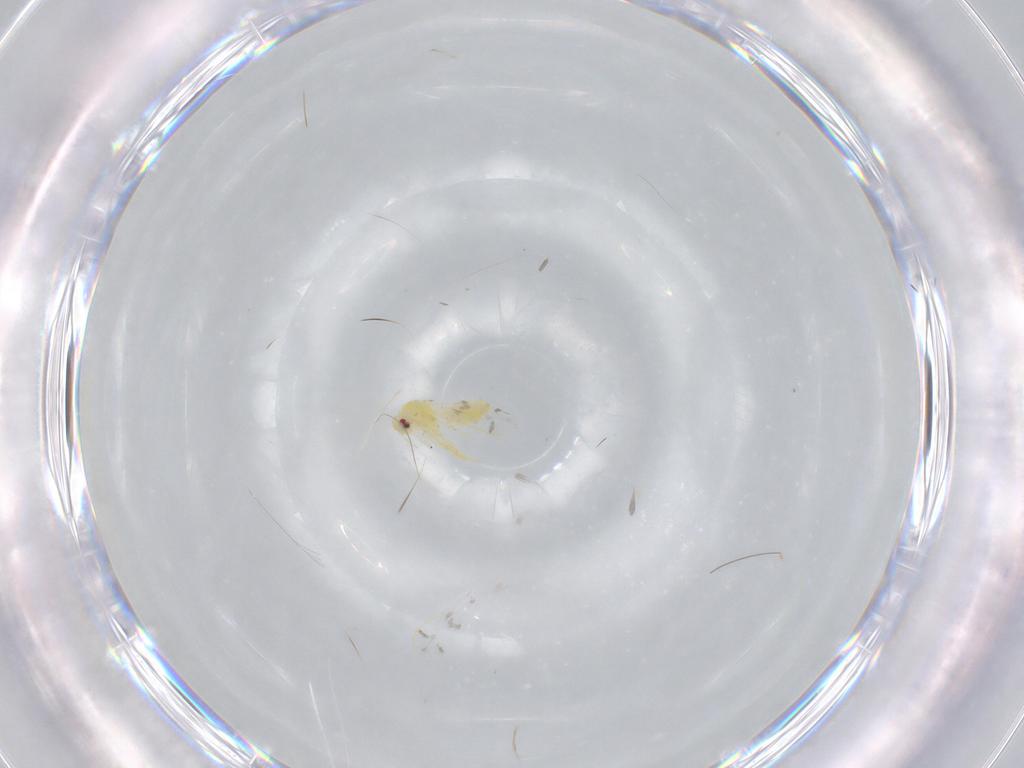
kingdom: Animalia
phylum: Arthropoda
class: Insecta
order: Hemiptera
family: Aleyrodidae
